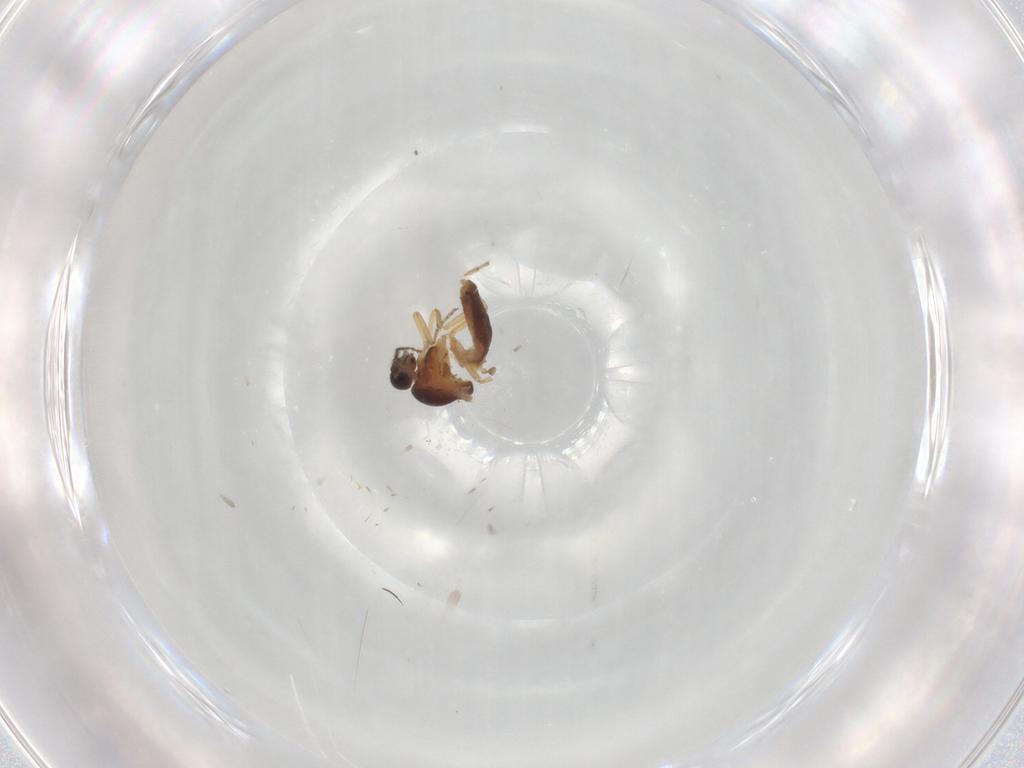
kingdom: Animalia
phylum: Arthropoda
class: Insecta
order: Diptera
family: Ceratopogonidae
